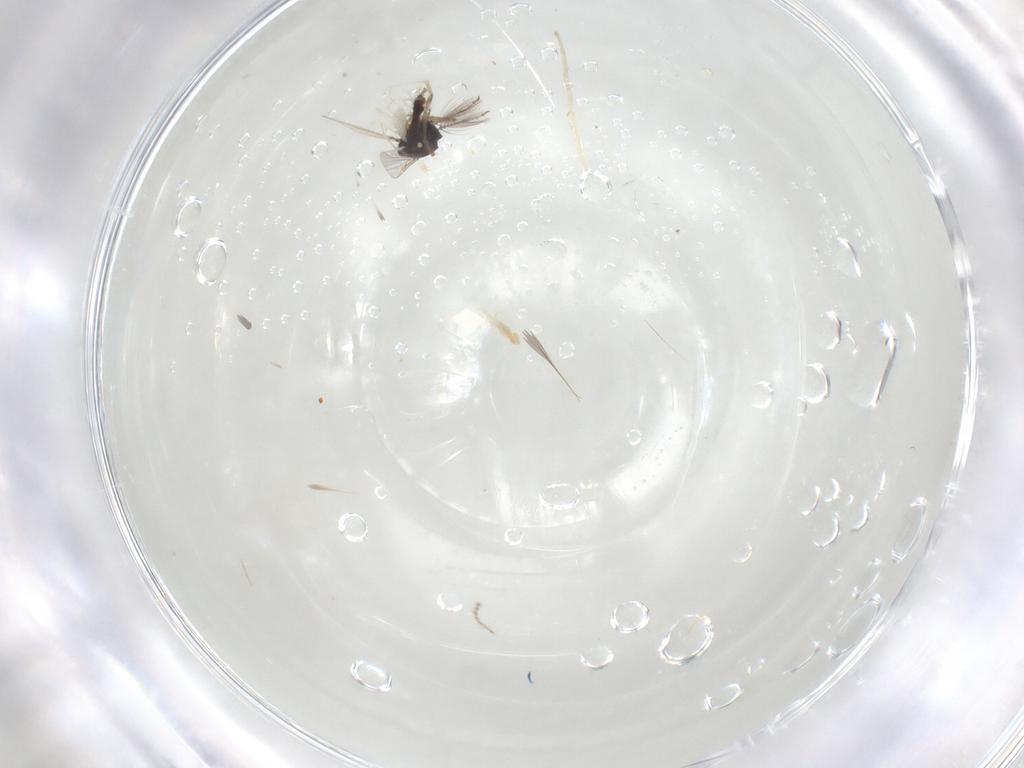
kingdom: Animalia
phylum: Arthropoda
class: Insecta
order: Diptera
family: Ceratopogonidae
